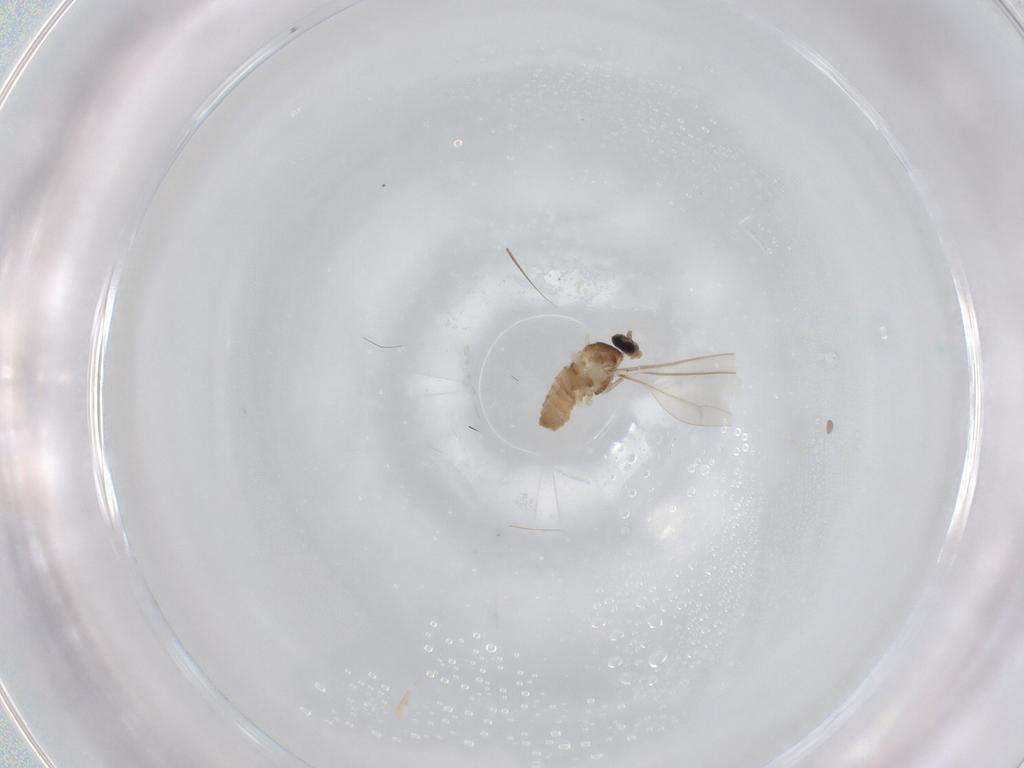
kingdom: Animalia
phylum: Arthropoda
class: Insecta
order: Diptera
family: Cecidomyiidae
